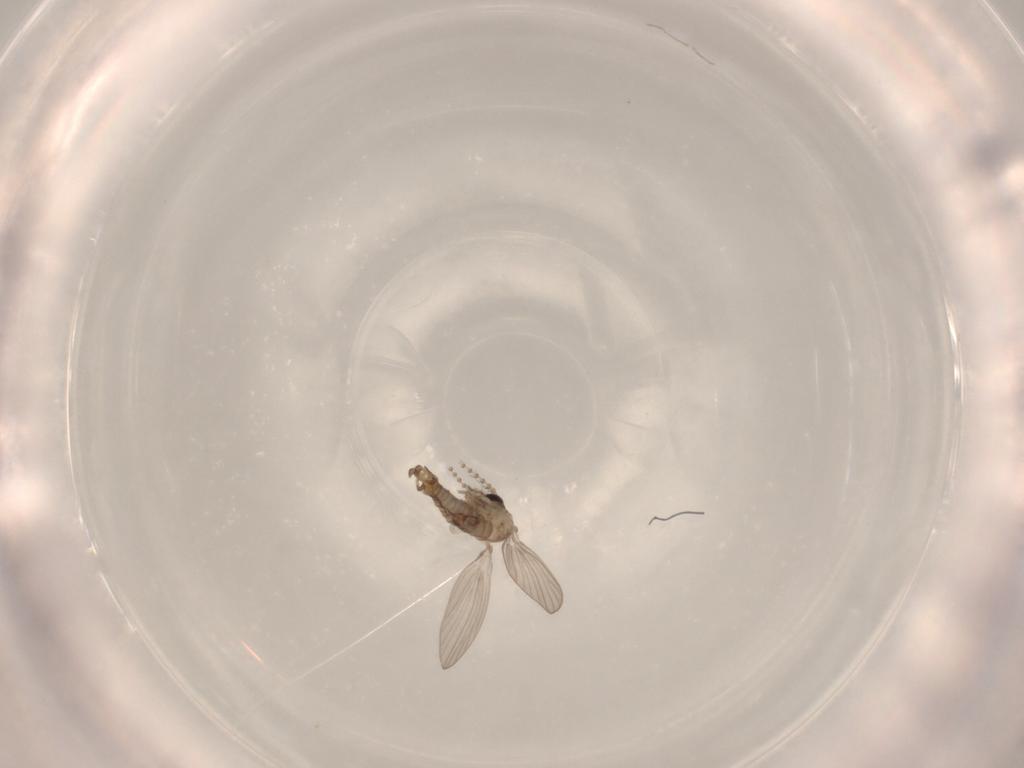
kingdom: Animalia
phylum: Arthropoda
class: Insecta
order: Diptera
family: Psychodidae
